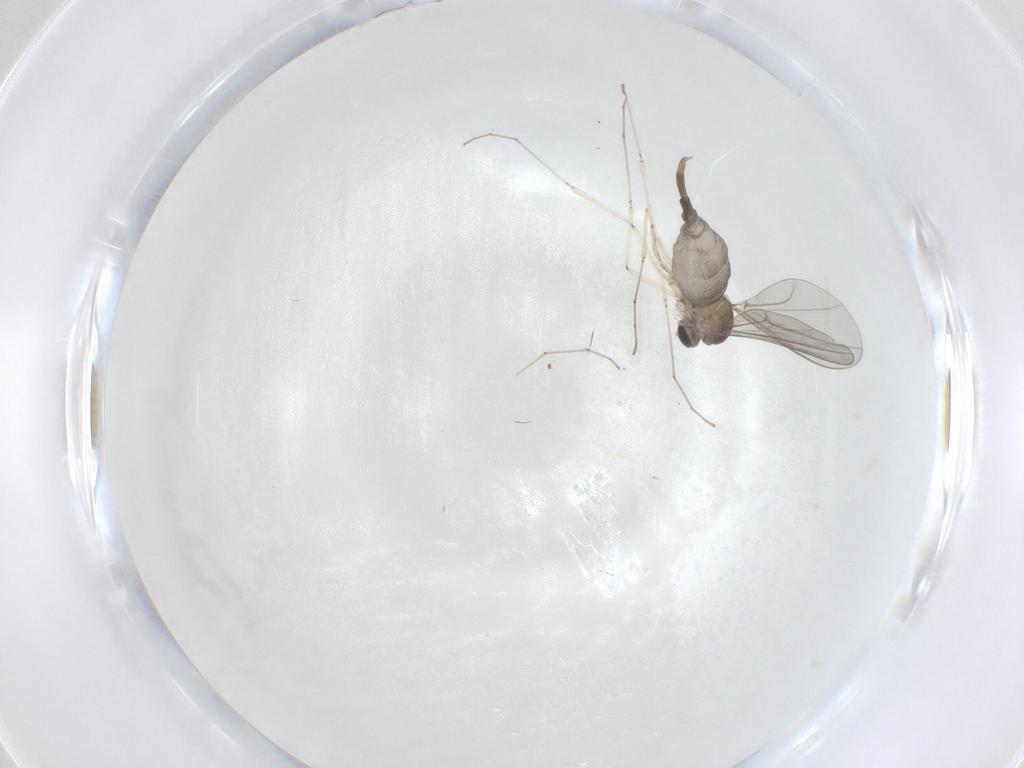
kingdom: Animalia
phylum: Arthropoda
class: Insecta
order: Diptera
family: Cecidomyiidae
